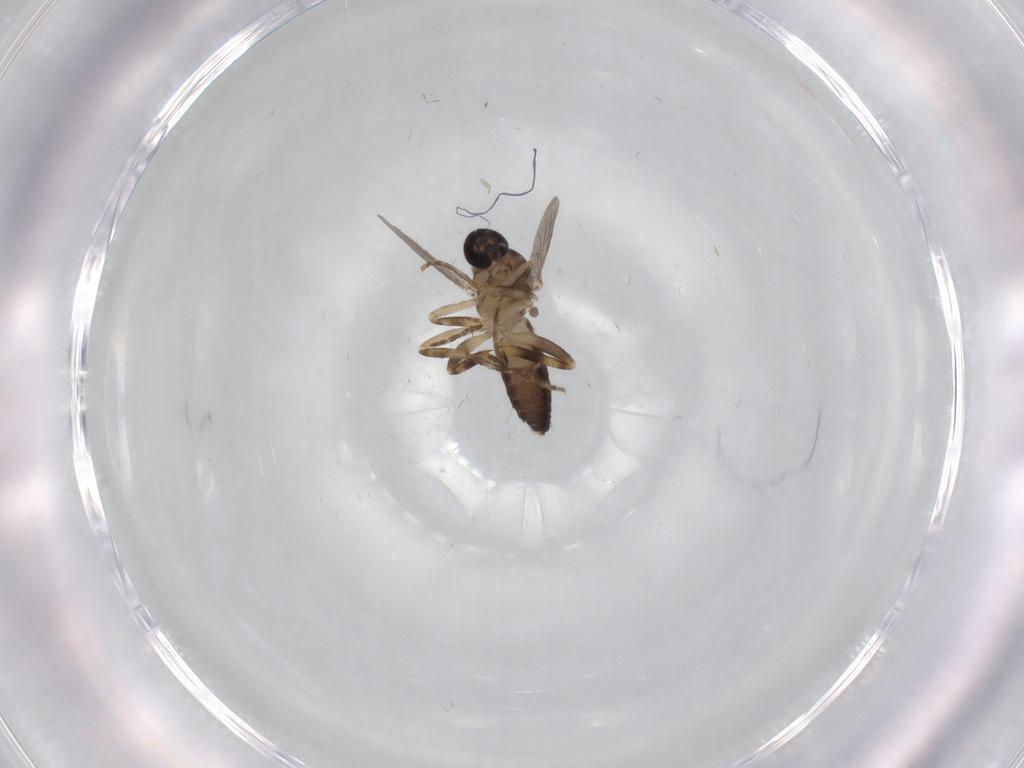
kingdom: Animalia
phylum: Arthropoda
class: Insecta
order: Diptera
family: Ceratopogonidae
